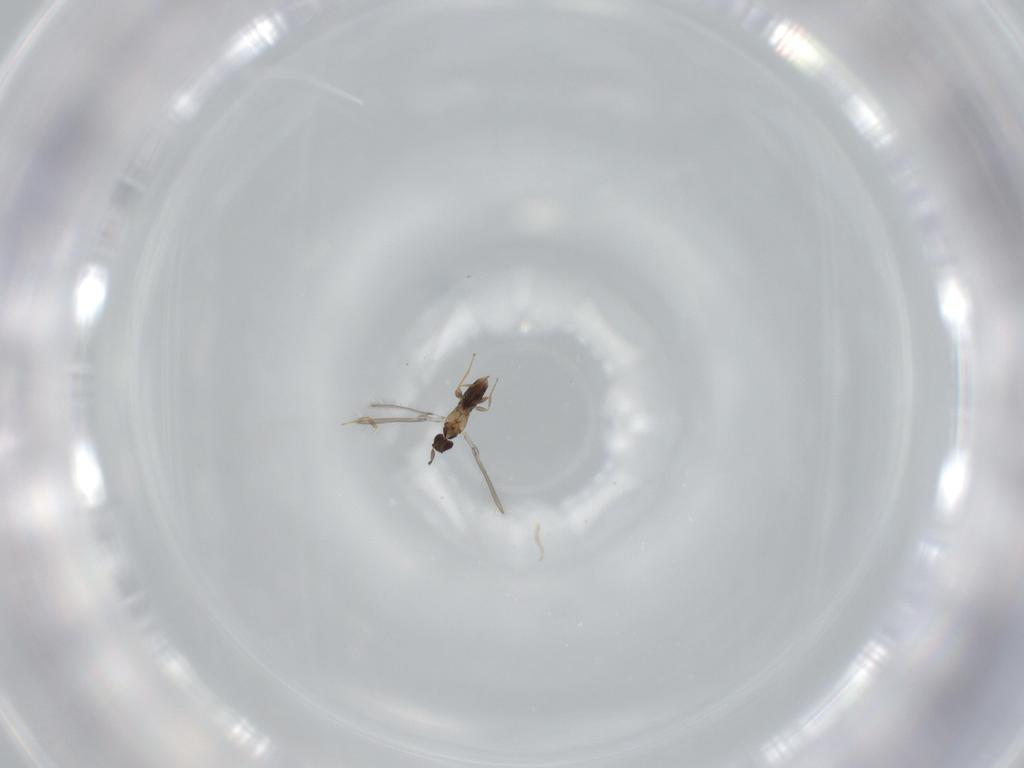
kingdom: Animalia
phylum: Arthropoda
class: Insecta
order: Hymenoptera
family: Mymaridae
